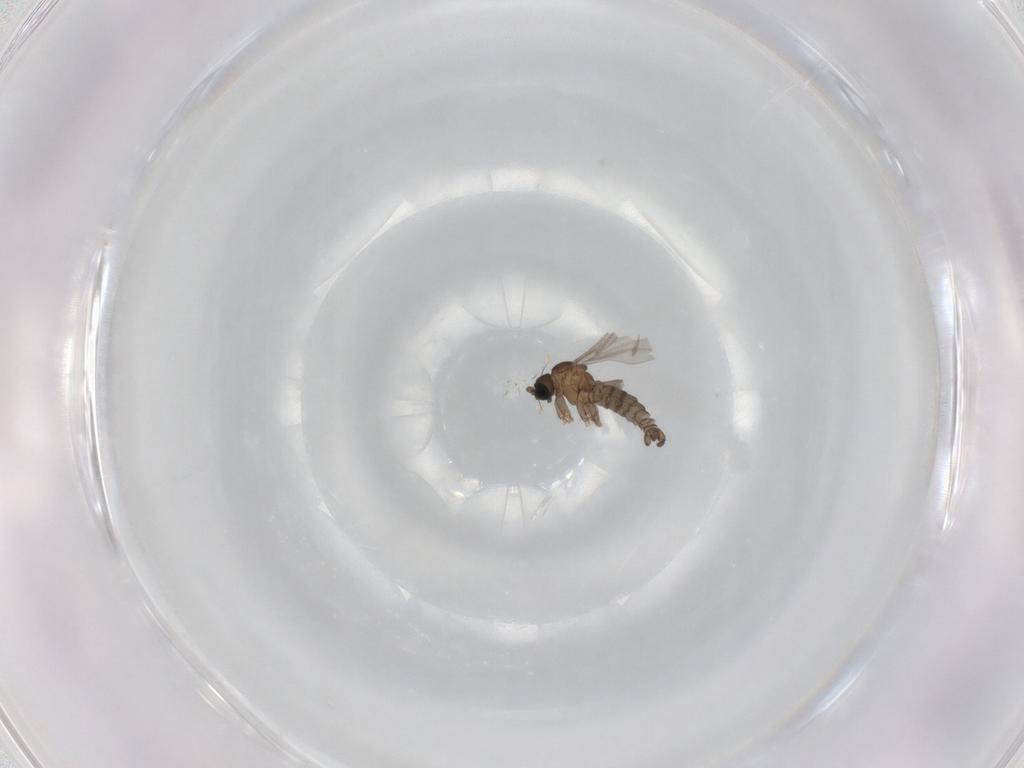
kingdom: Animalia
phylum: Arthropoda
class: Insecta
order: Diptera
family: Sciaridae
